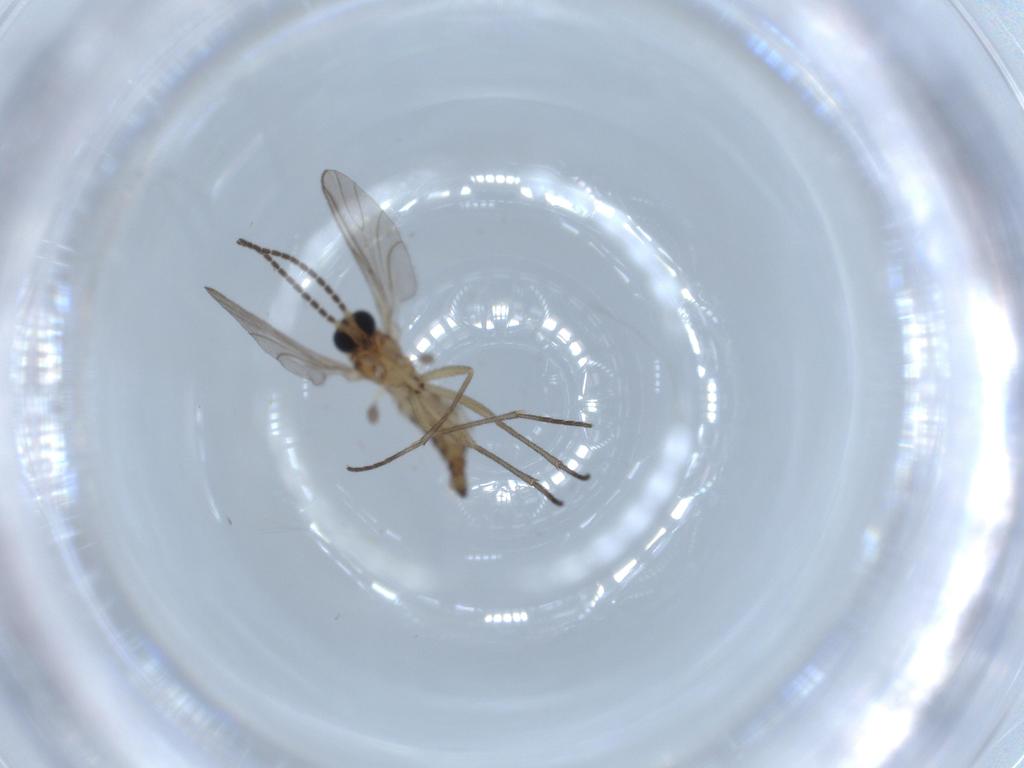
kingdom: Animalia
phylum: Arthropoda
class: Insecta
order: Diptera
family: Sciaridae
